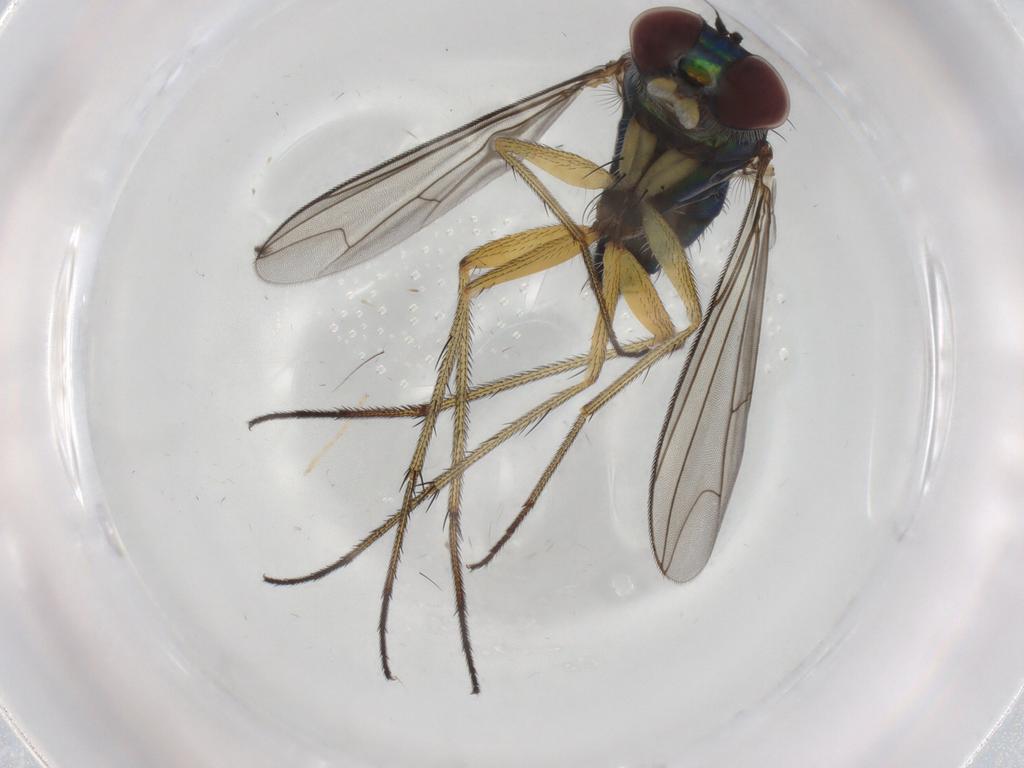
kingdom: Animalia
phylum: Arthropoda
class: Insecta
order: Diptera
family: Dolichopodidae
